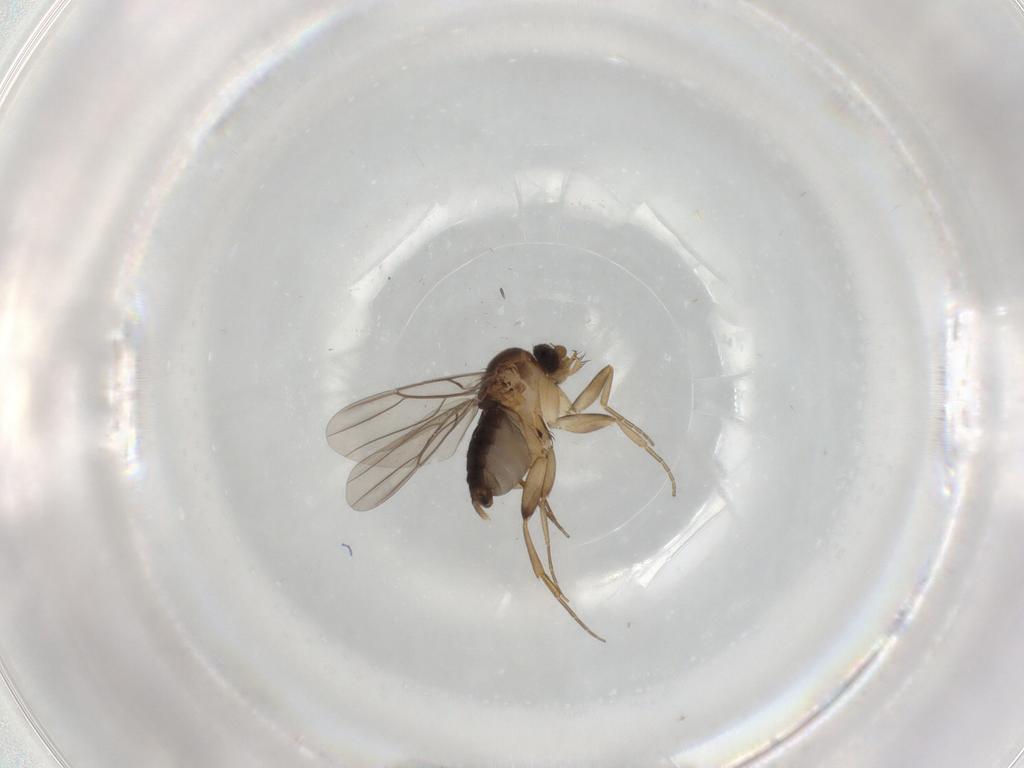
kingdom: Animalia
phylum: Arthropoda
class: Insecta
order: Diptera
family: Phoridae
